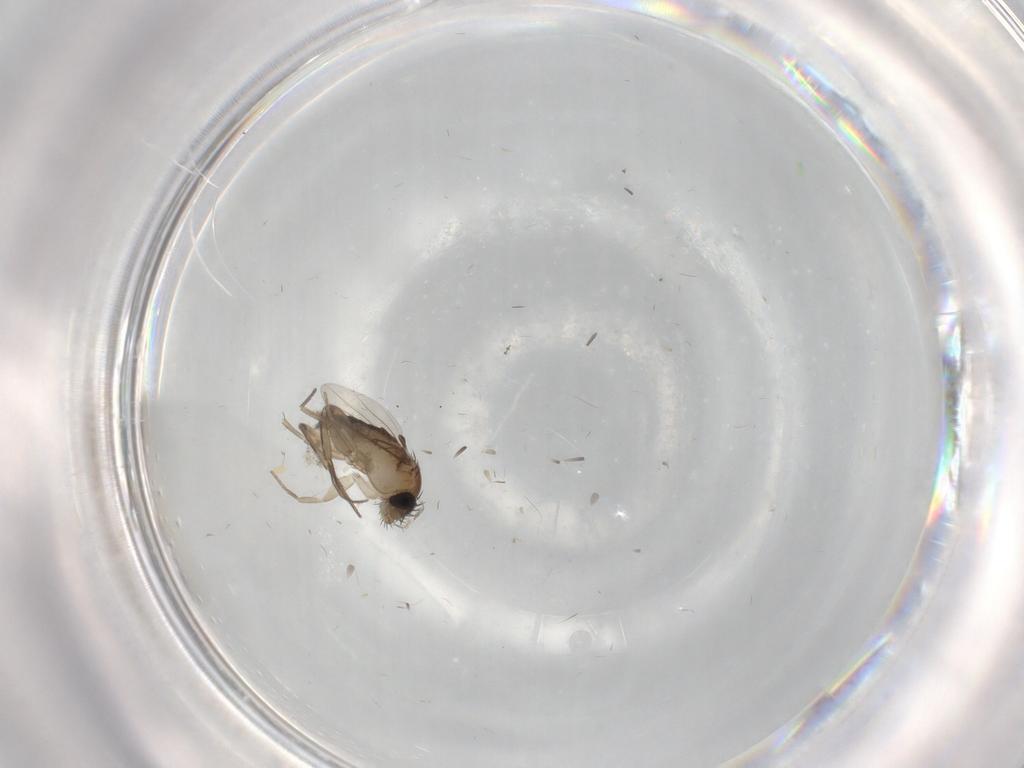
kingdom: Animalia
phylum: Arthropoda
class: Insecta
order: Diptera
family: Phoridae
